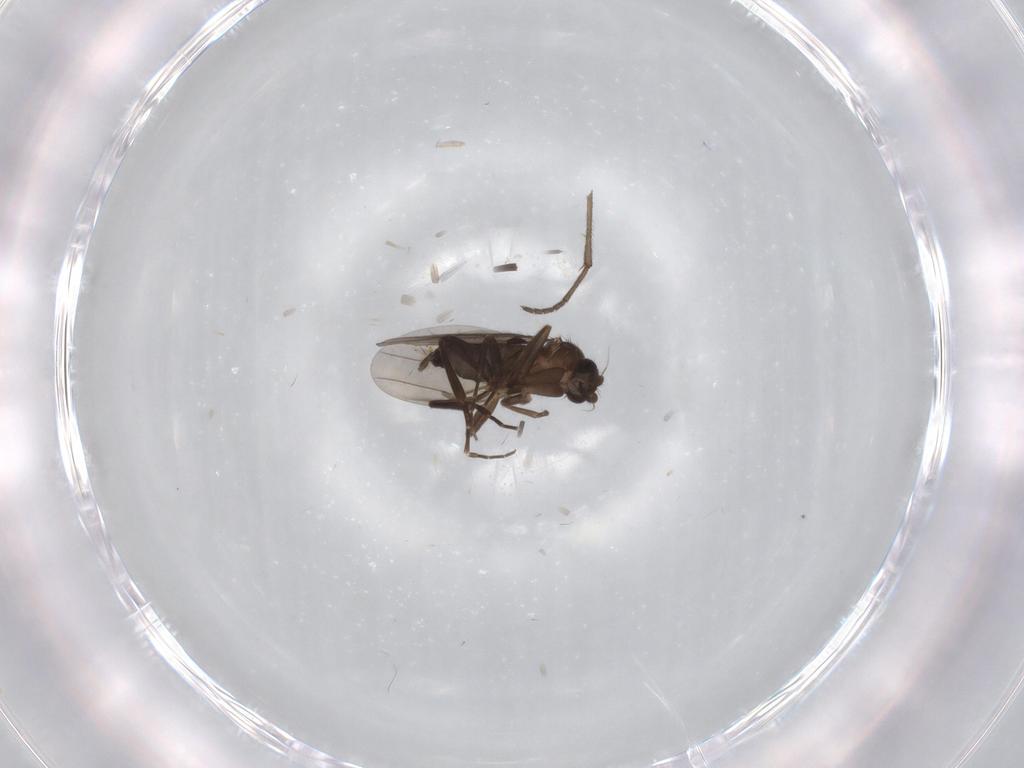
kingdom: Animalia
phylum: Arthropoda
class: Insecta
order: Diptera
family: Sciaridae
